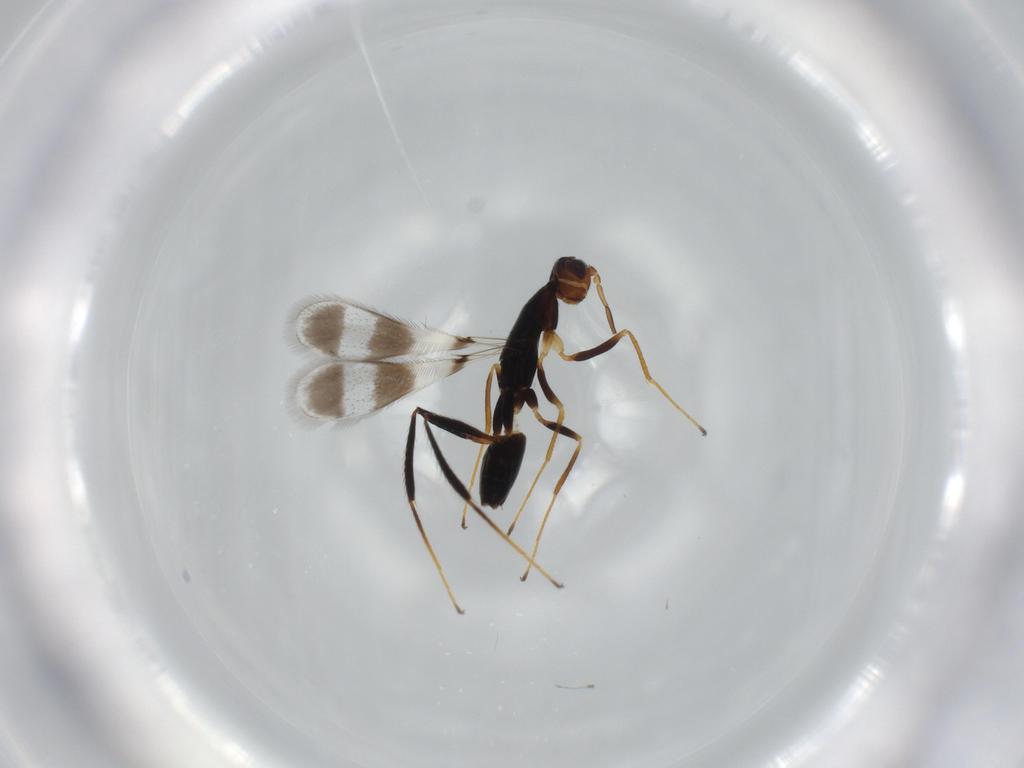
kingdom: Animalia
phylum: Arthropoda
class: Insecta
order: Hymenoptera
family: Mymaridae
